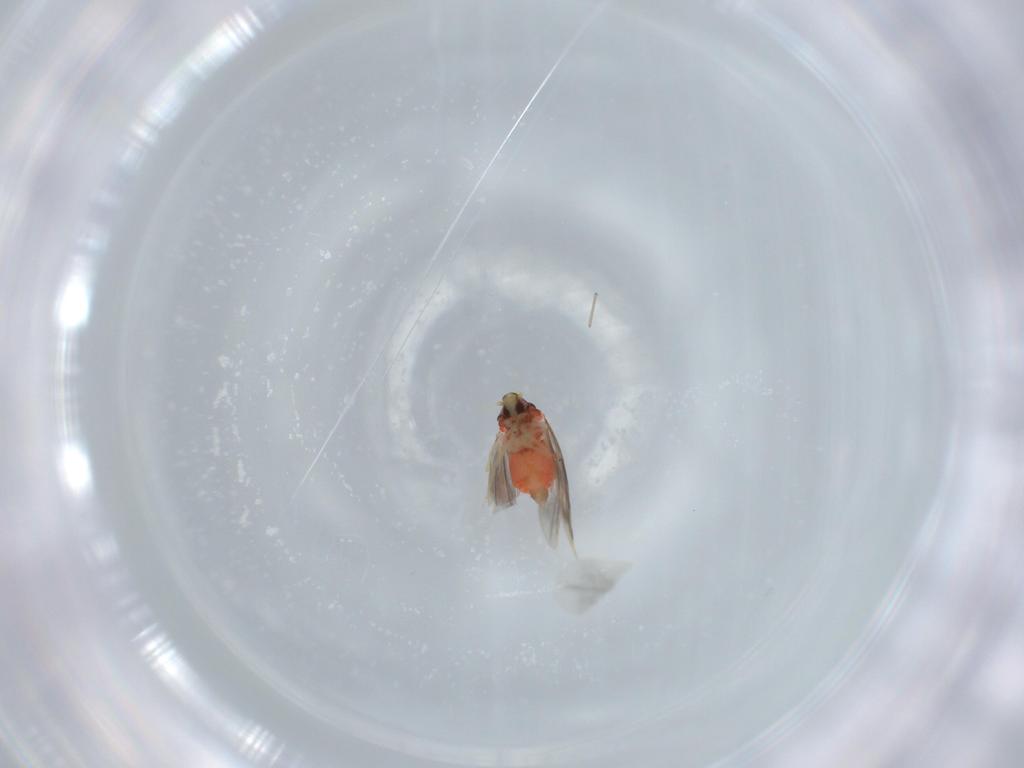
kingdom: Animalia
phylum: Arthropoda
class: Insecta
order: Hemiptera
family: Aleyrodidae
